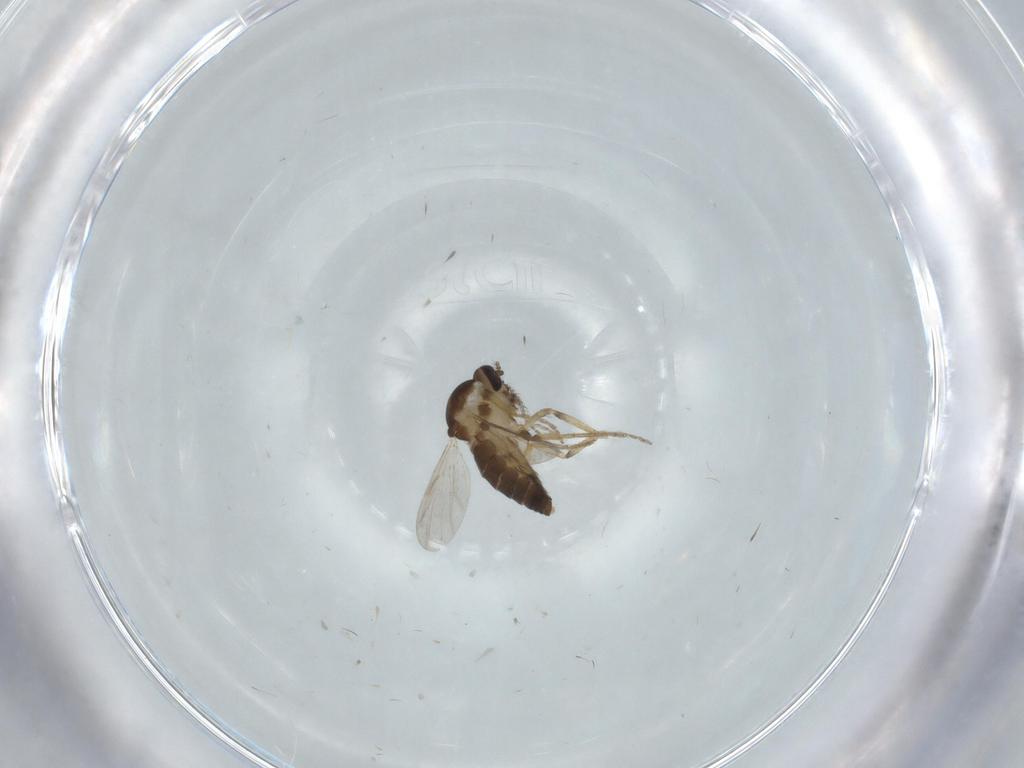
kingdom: Animalia
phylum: Arthropoda
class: Insecta
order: Diptera
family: Ceratopogonidae
